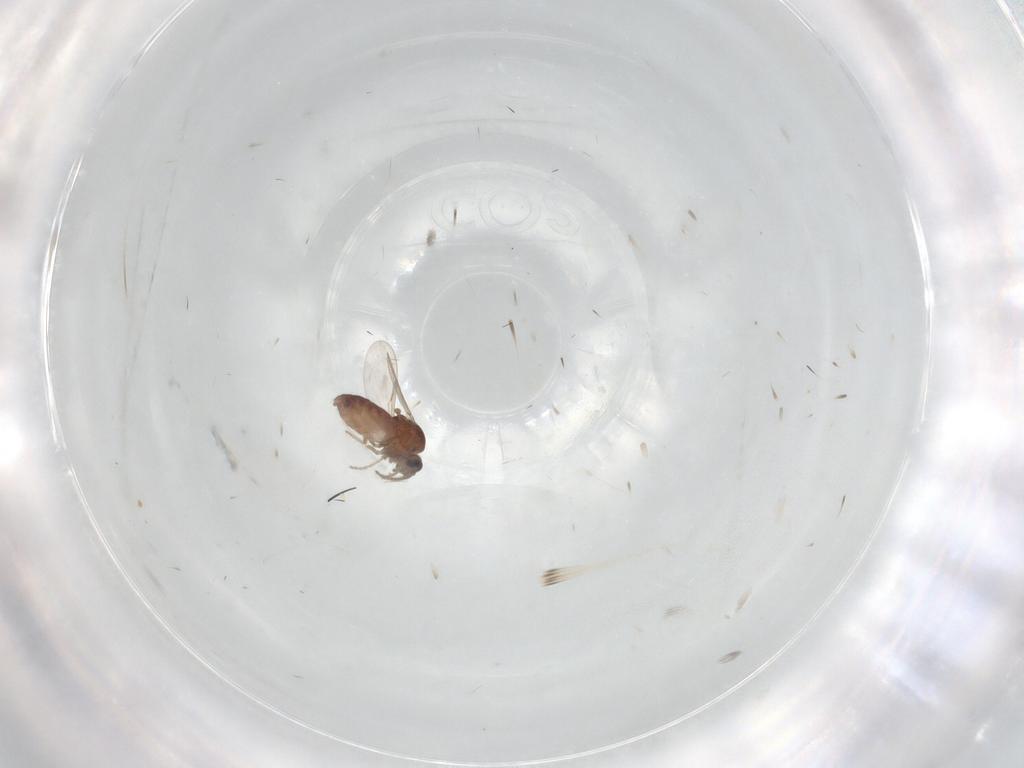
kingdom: Animalia
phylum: Arthropoda
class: Insecta
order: Diptera
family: Ceratopogonidae
